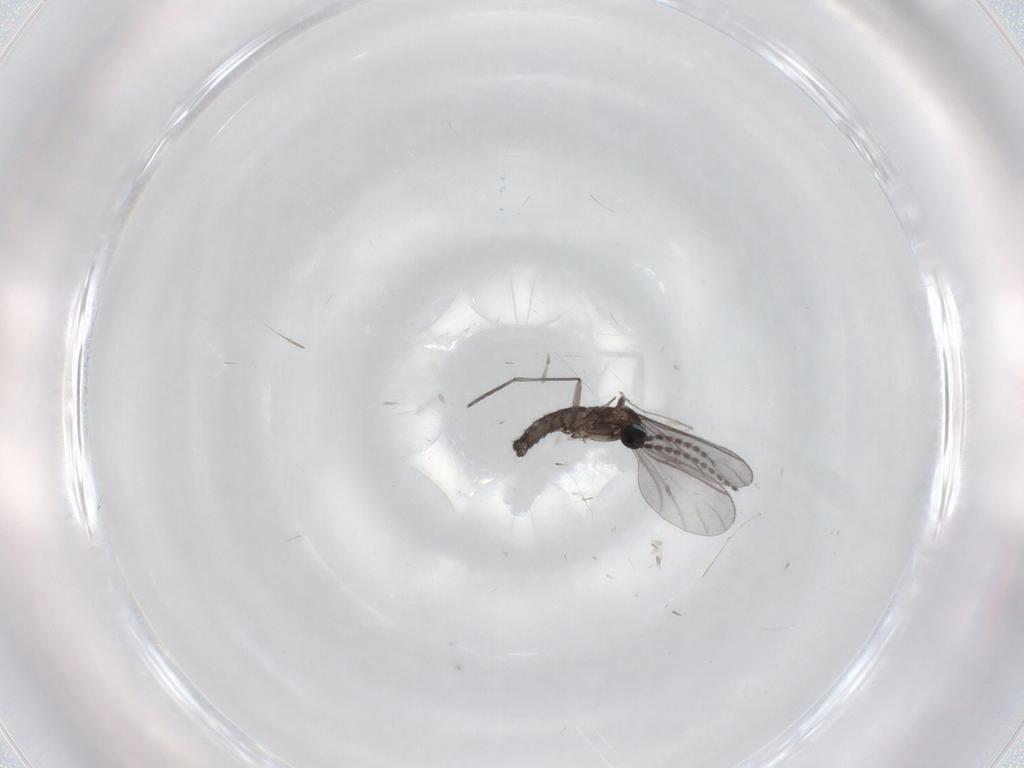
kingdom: Animalia
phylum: Arthropoda
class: Insecta
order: Diptera
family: Sciaridae
